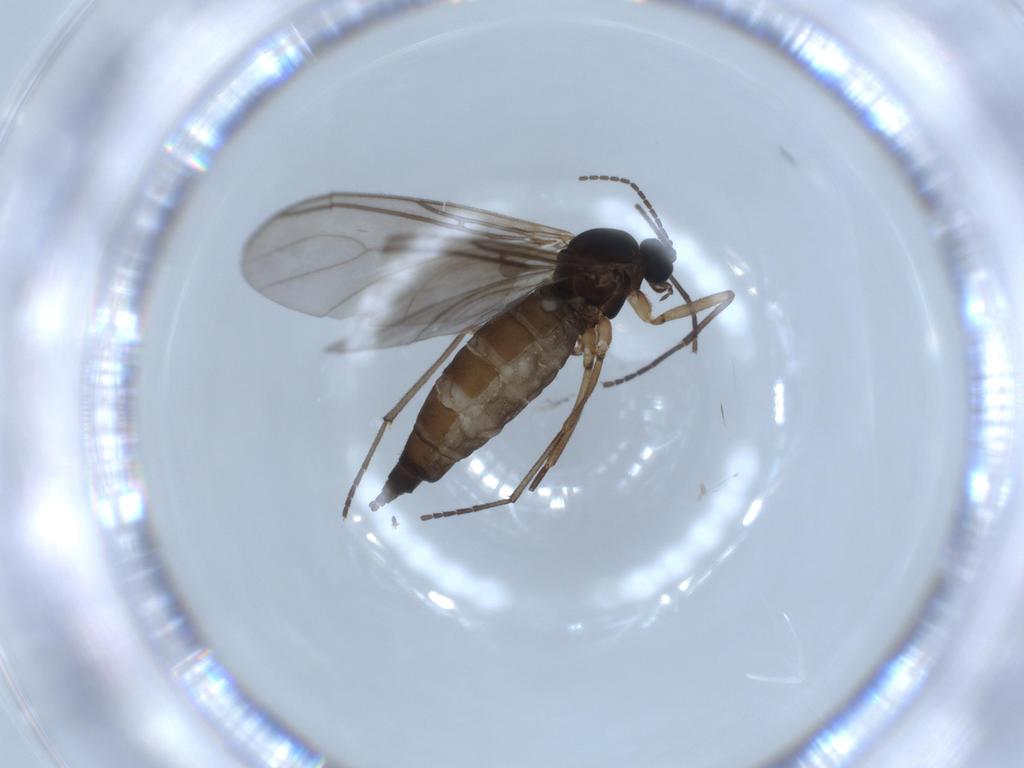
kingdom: Animalia
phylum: Arthropoda
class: Insecta
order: Diptera
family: Sciaridae
